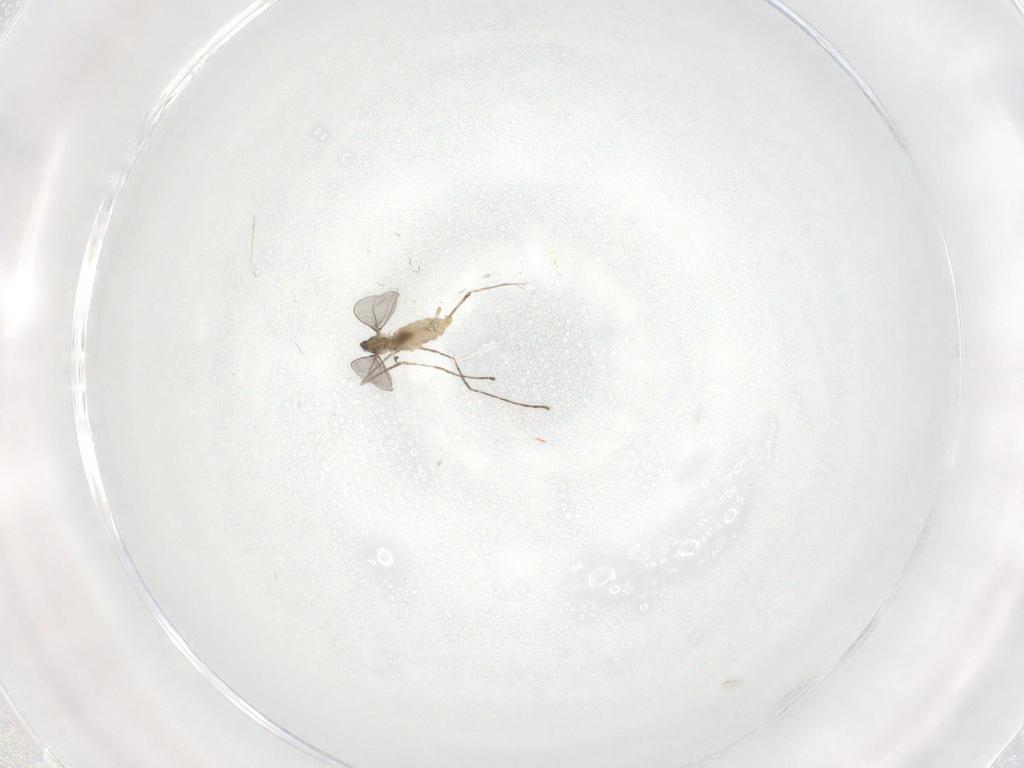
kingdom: Animalia
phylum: Arthropoda
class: Insecta
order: Diptera
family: Cecidomyiidae
